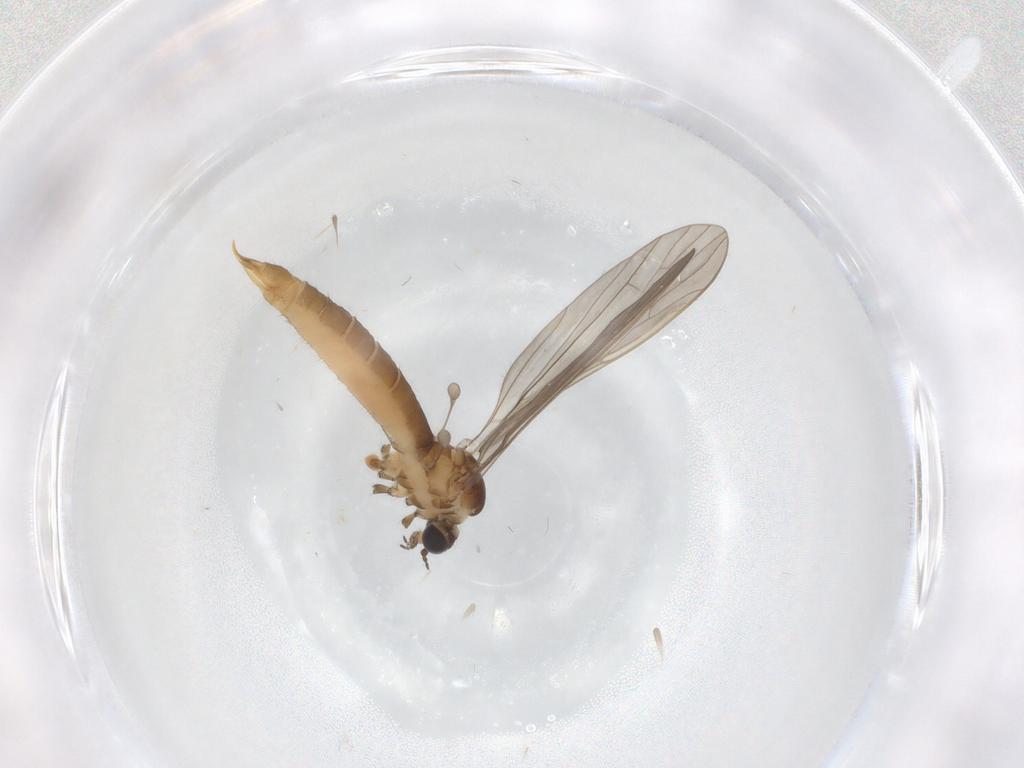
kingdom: Animalia
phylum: Arthropoda
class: Insecta
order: Diptera
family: Limoniidae
